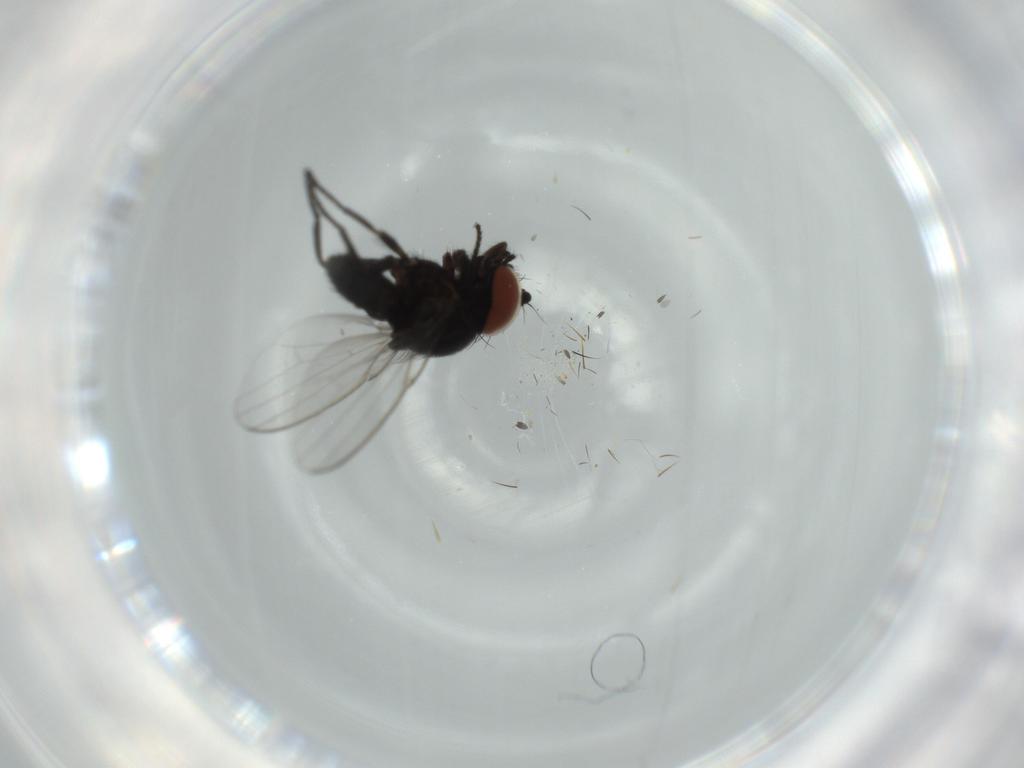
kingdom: Animalia
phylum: Arthropoda
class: Insecta
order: Diptera
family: Milichiidae
